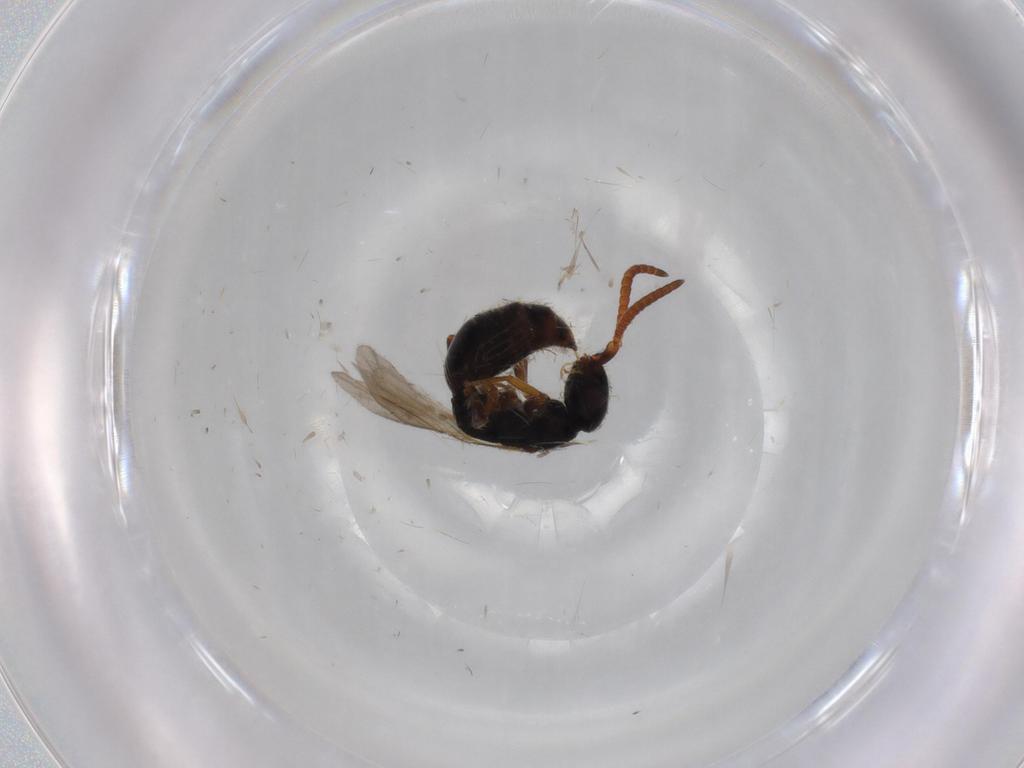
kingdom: Animalia
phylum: Arthropoda
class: Insecta
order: Hymenoptera
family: Bethylidae
